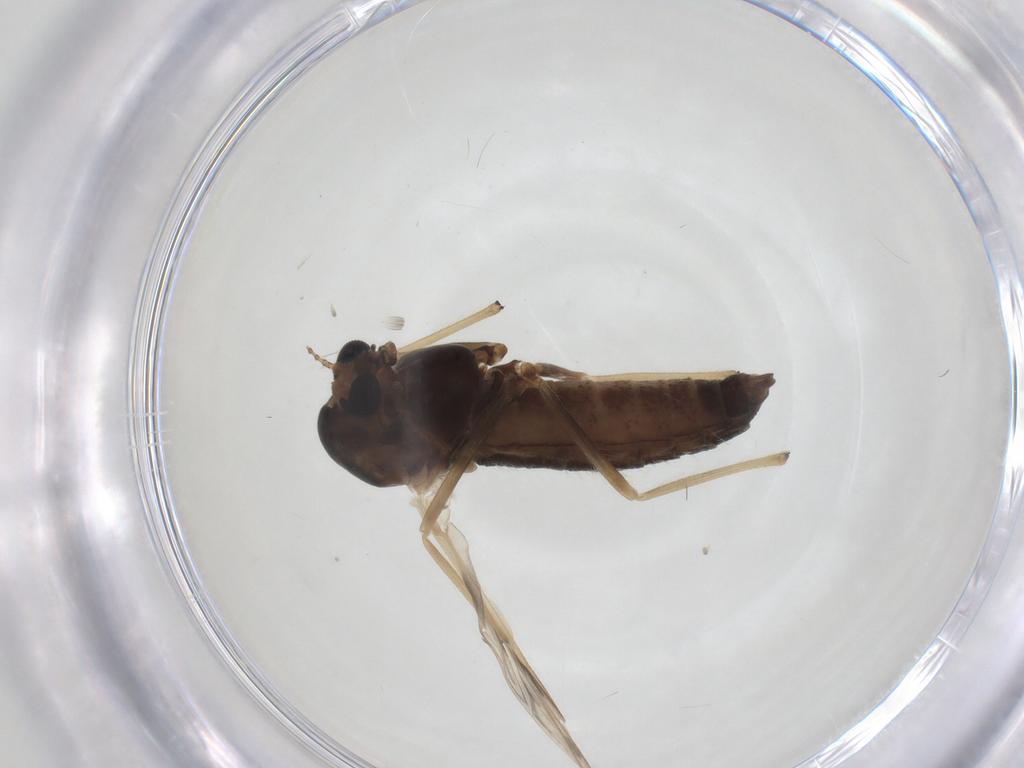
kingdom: Animalia
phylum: Arthropoda
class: Insecta
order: Diptera
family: Chironomidae
